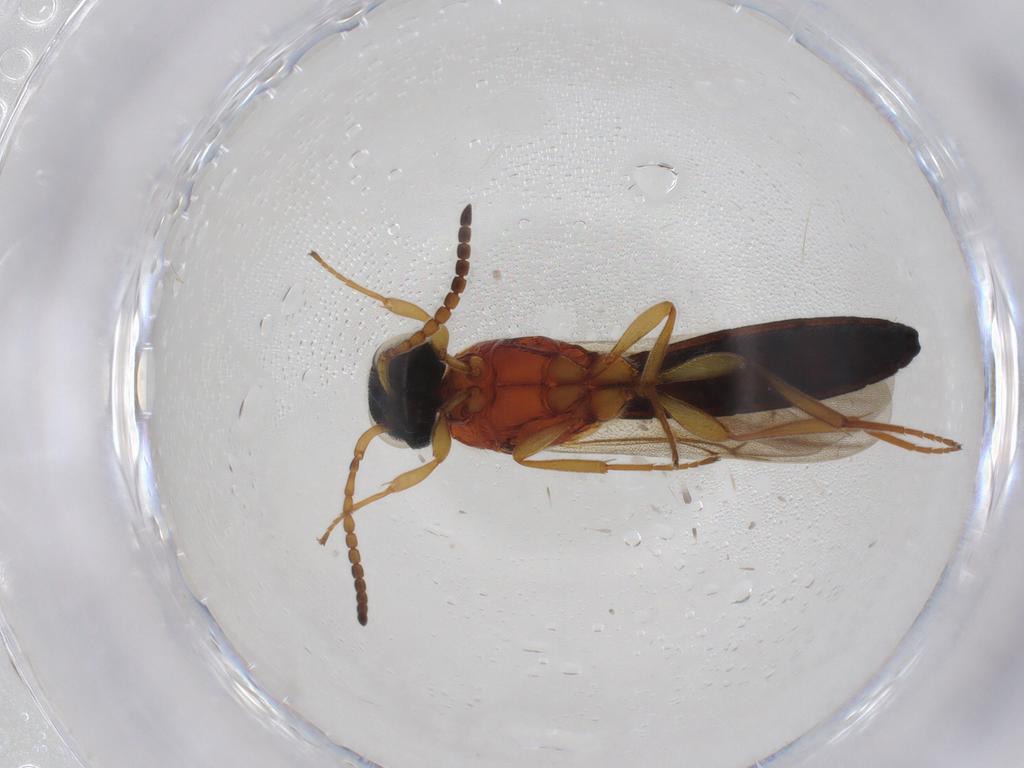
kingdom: Animalia
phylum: Arthropoda
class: Insecta
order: Hymenoptera
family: Scelionidae
